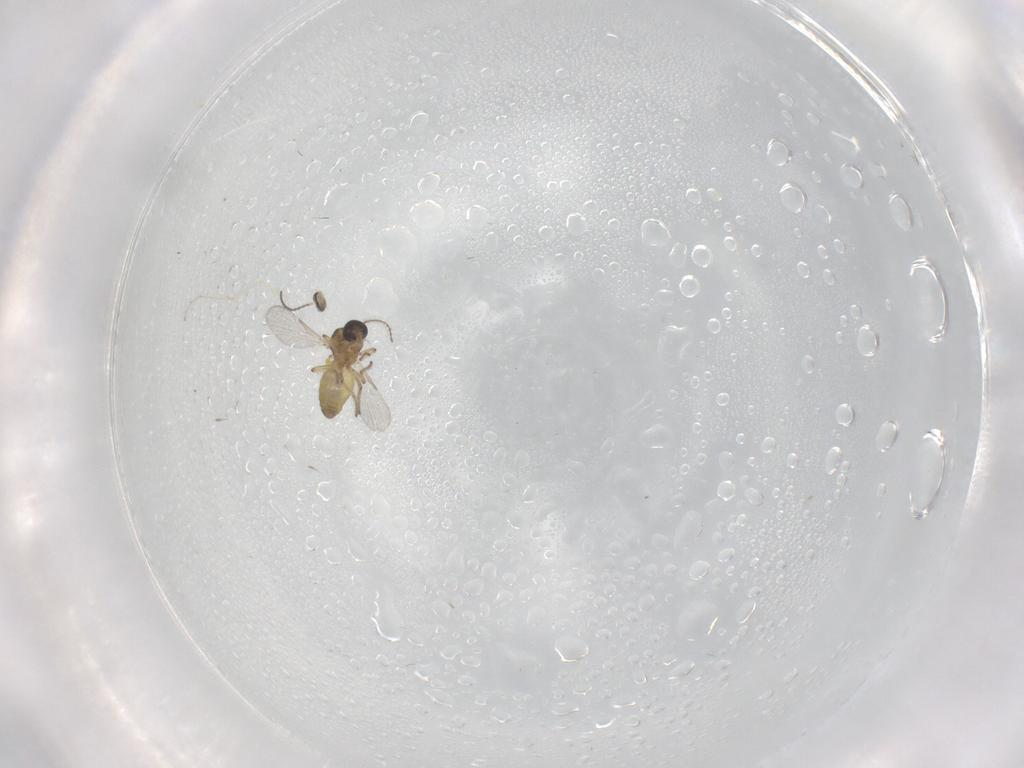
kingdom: Animalia
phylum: Arthropoda
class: Insecta
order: Diptera
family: Cecidomyiidae
